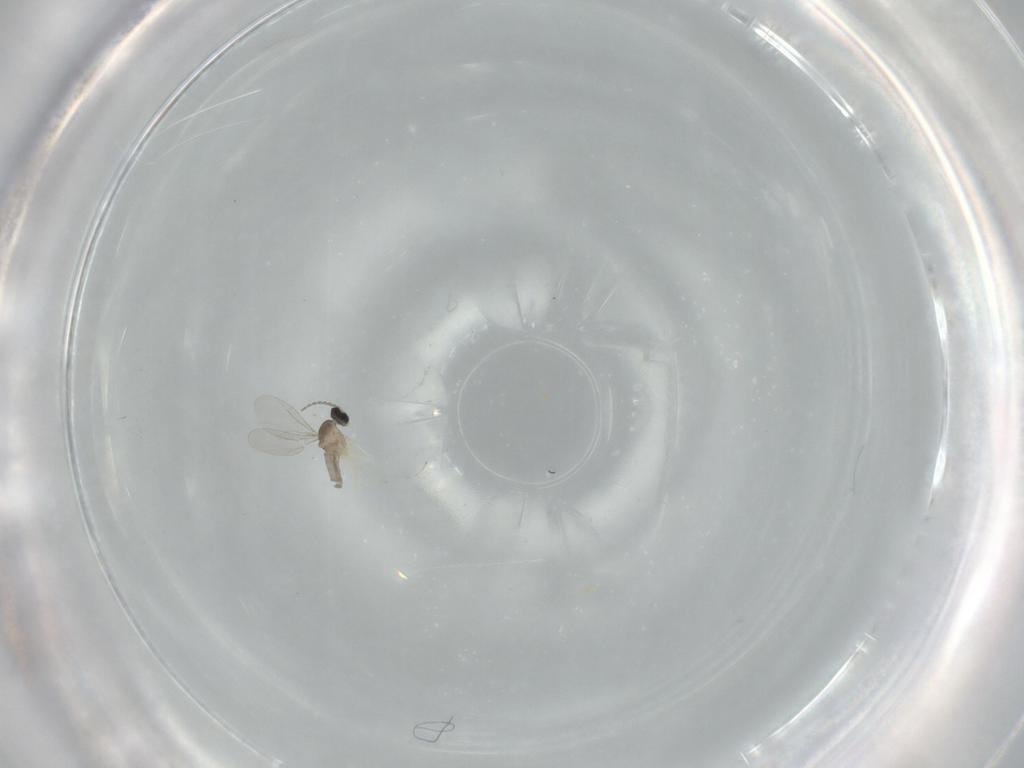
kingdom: Animalia
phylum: Arthropoda
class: Insecta
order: Diptera
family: Cecidomyiidae
